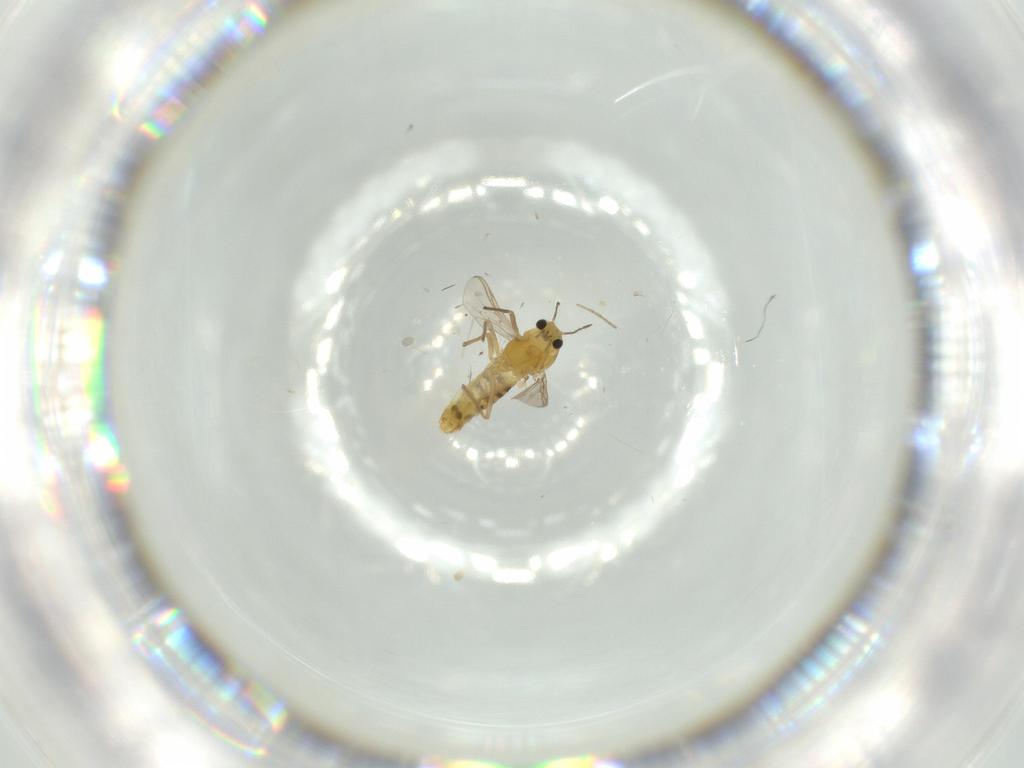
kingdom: Animalia
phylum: Arthropoda
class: Insecta
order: Diptera
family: Chironomidae
